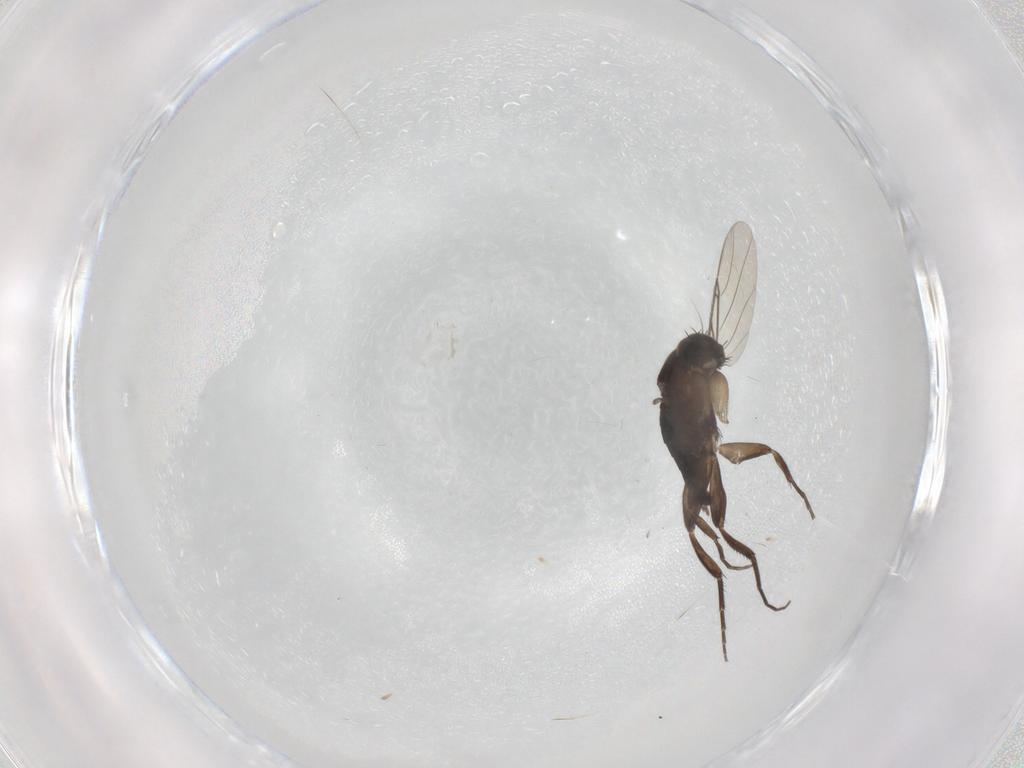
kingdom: Animalia
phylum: Arthropoda
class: Insecta
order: Diptera
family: Phoridae
